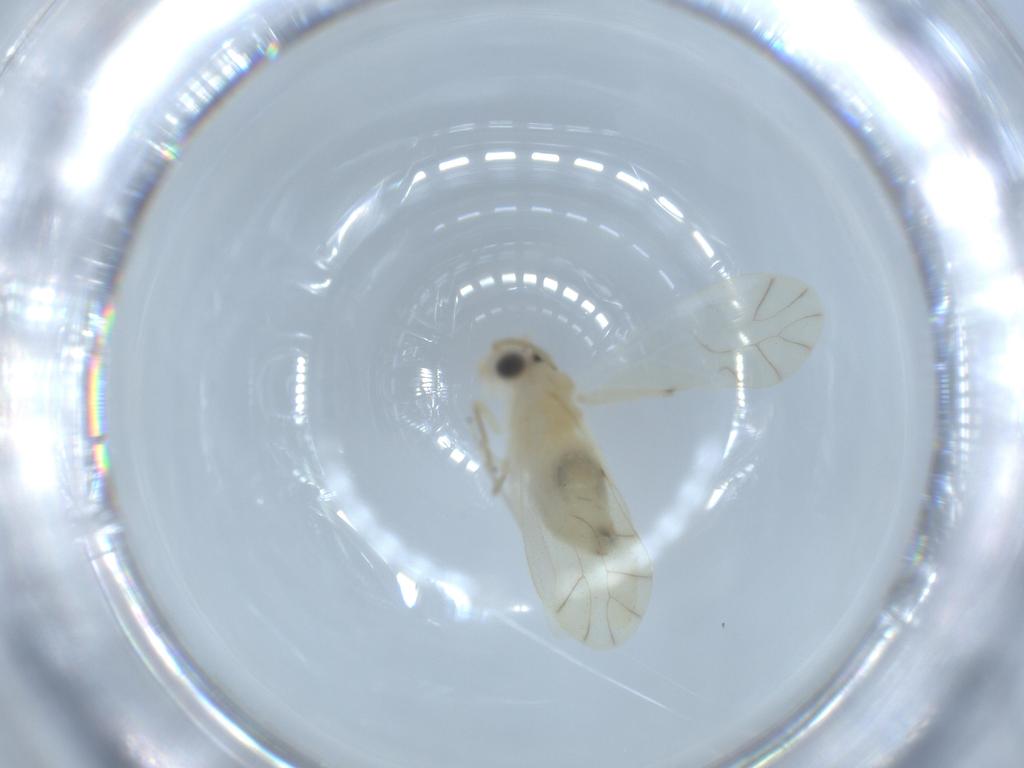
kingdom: Animalia
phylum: Arthropoda
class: Insecta
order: Psocodea
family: Caeciliusidae
